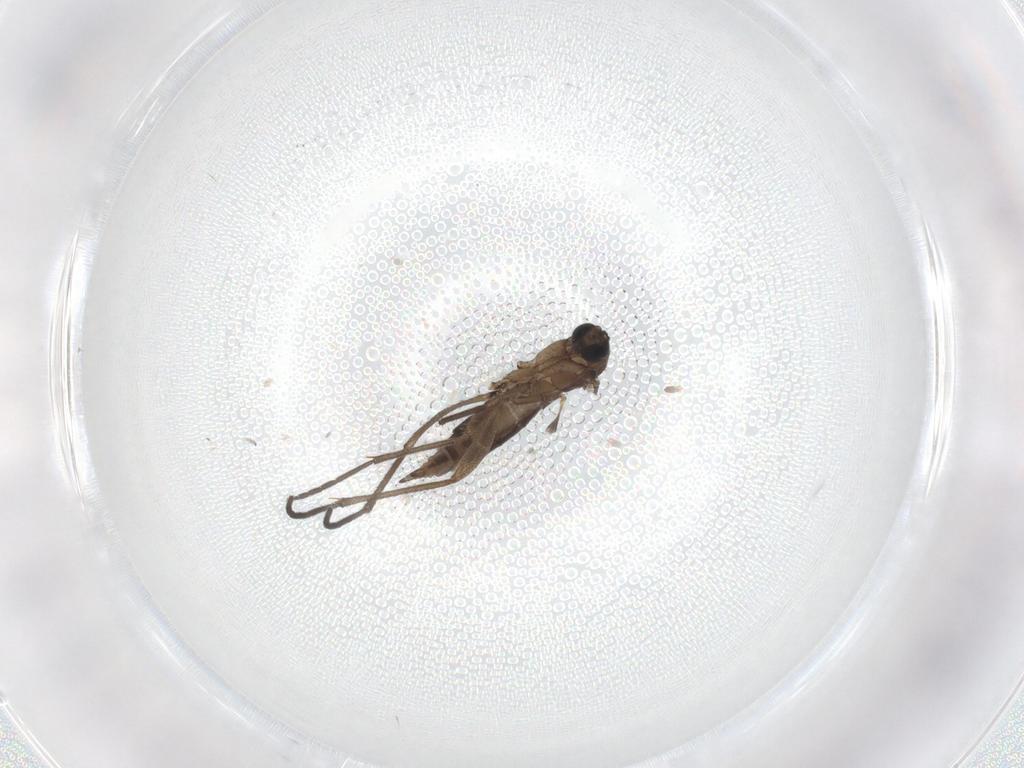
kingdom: Animalia
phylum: Arthropoda
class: Insecta
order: Diptera
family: Sciaridae
